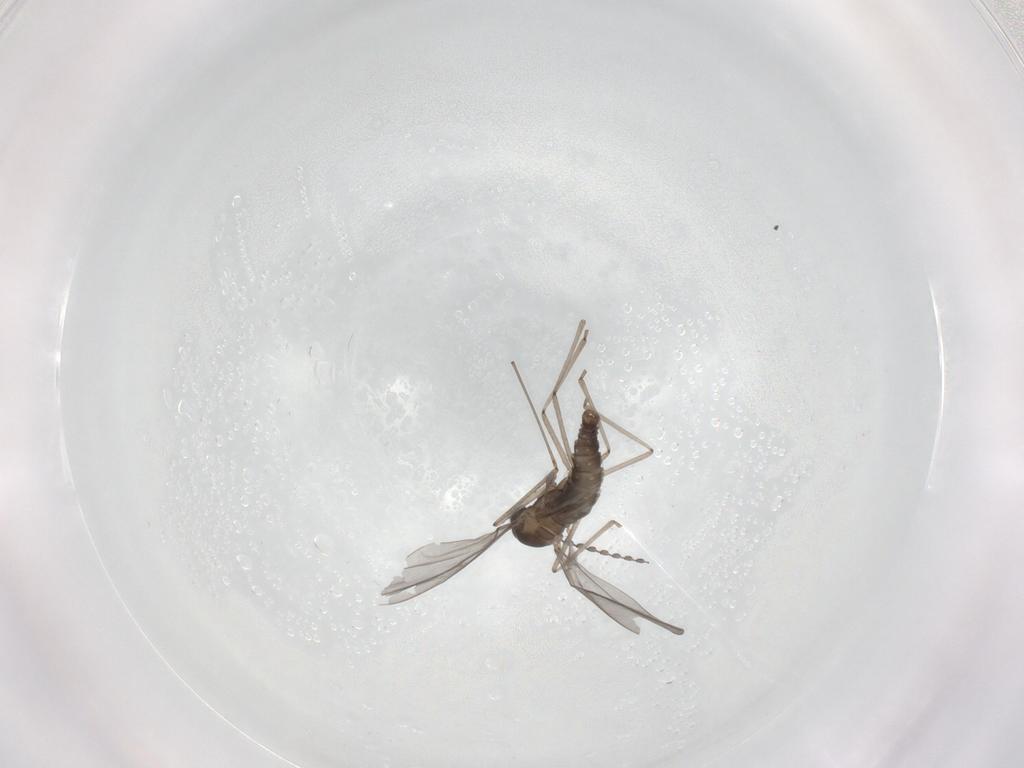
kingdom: Animalia
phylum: Arthropoda
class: Insecta
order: Diptera
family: Cecidomyiidae
